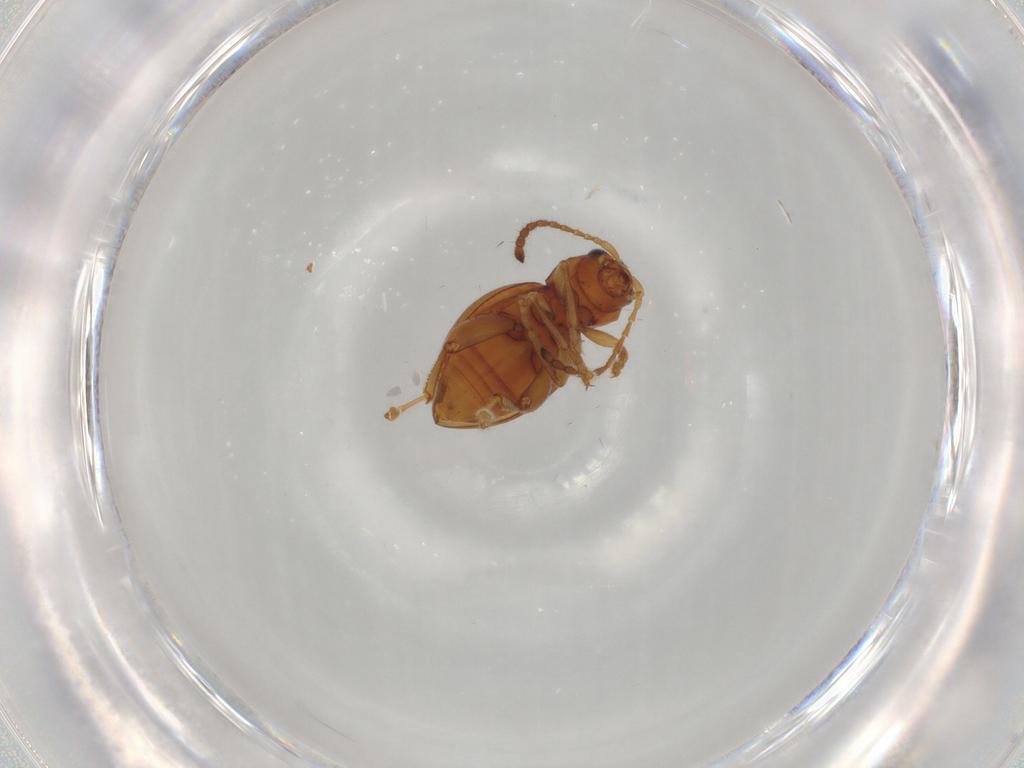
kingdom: Animalia
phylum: Arthropoda
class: Insecta
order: Coleoptera
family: Chrysomelidae
